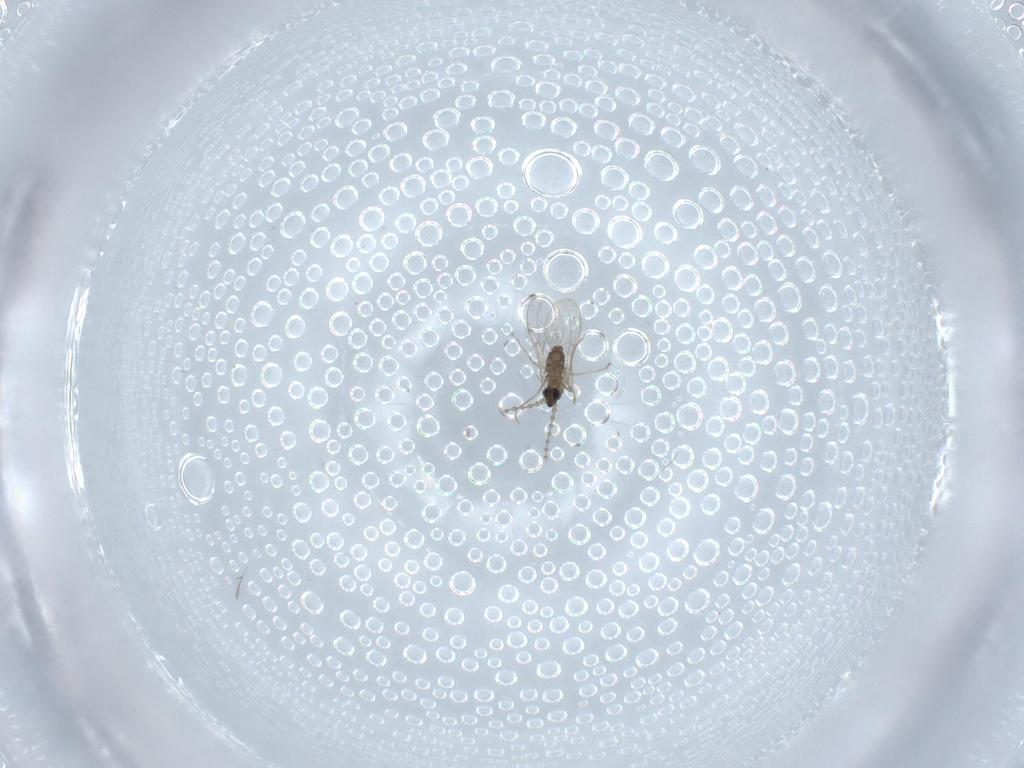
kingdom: Animalia
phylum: Arthropoda
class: Insecta
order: Diptera
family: Cecidomyiidae
